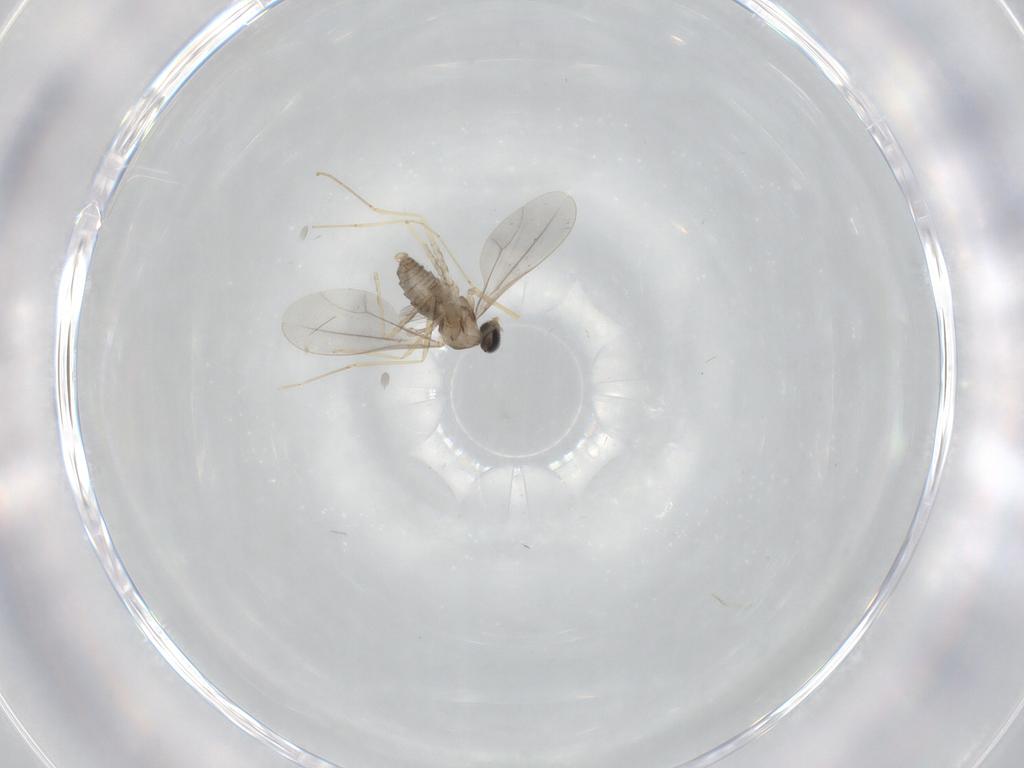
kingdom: Animalia
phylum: Arthropoda
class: Insecta
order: Diptera
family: Cecidomyiidae
